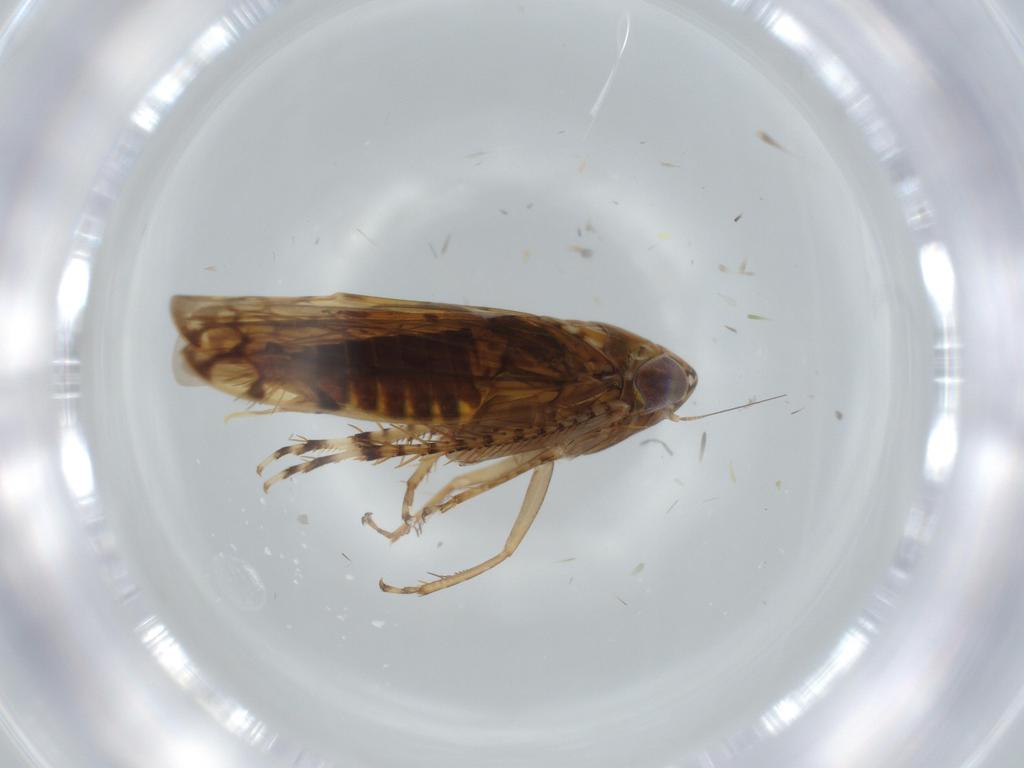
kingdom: Animalia
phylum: Arthropoda
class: Insecta
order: Hemiptera
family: Cicadellidae
